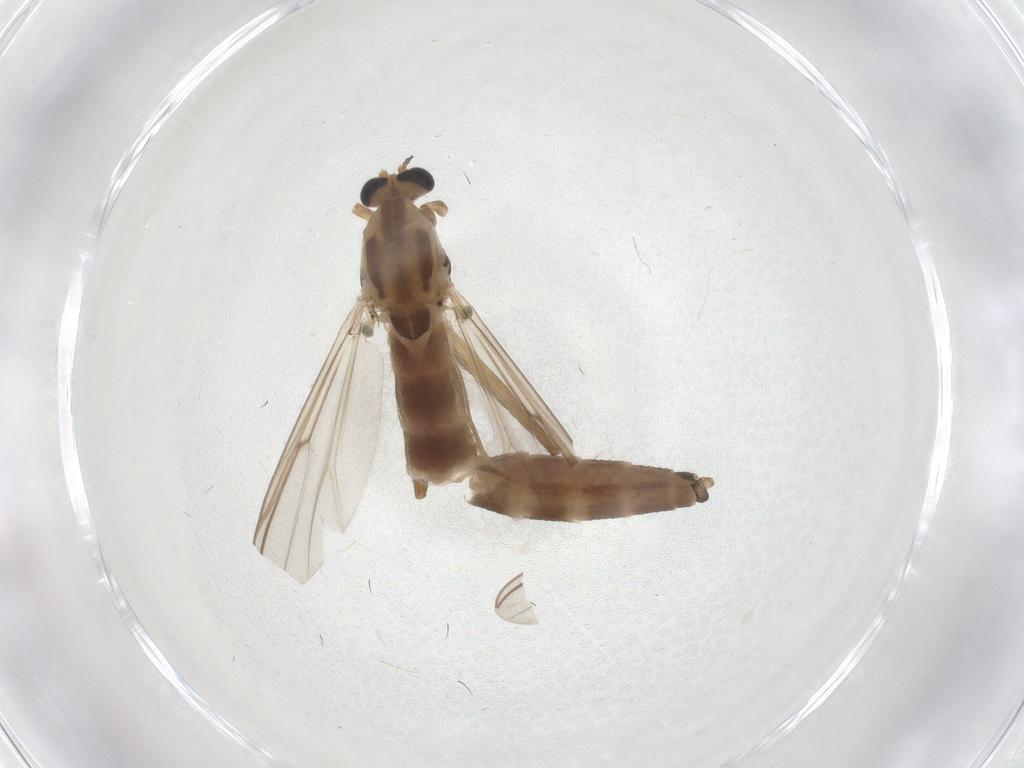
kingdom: Animalia
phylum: Arthropoda
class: Insecta
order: Diptera
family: Chironomidae
